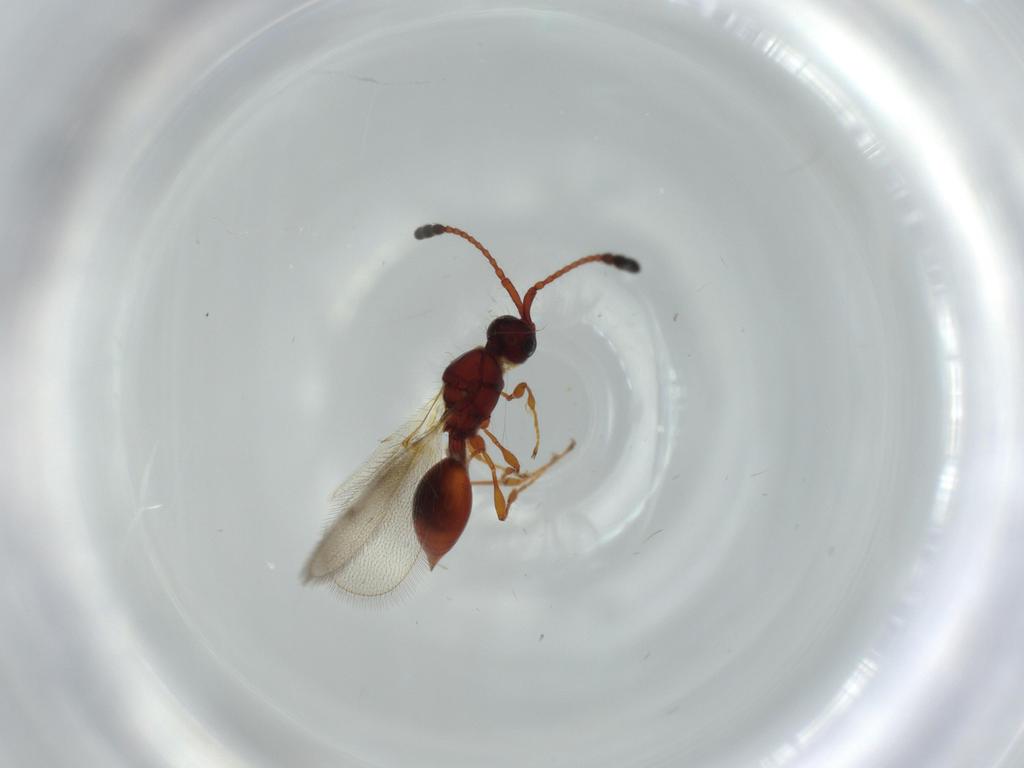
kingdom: Animalia
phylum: Arthropoda
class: Insecta
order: Hymenoptera
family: Diapriidae
